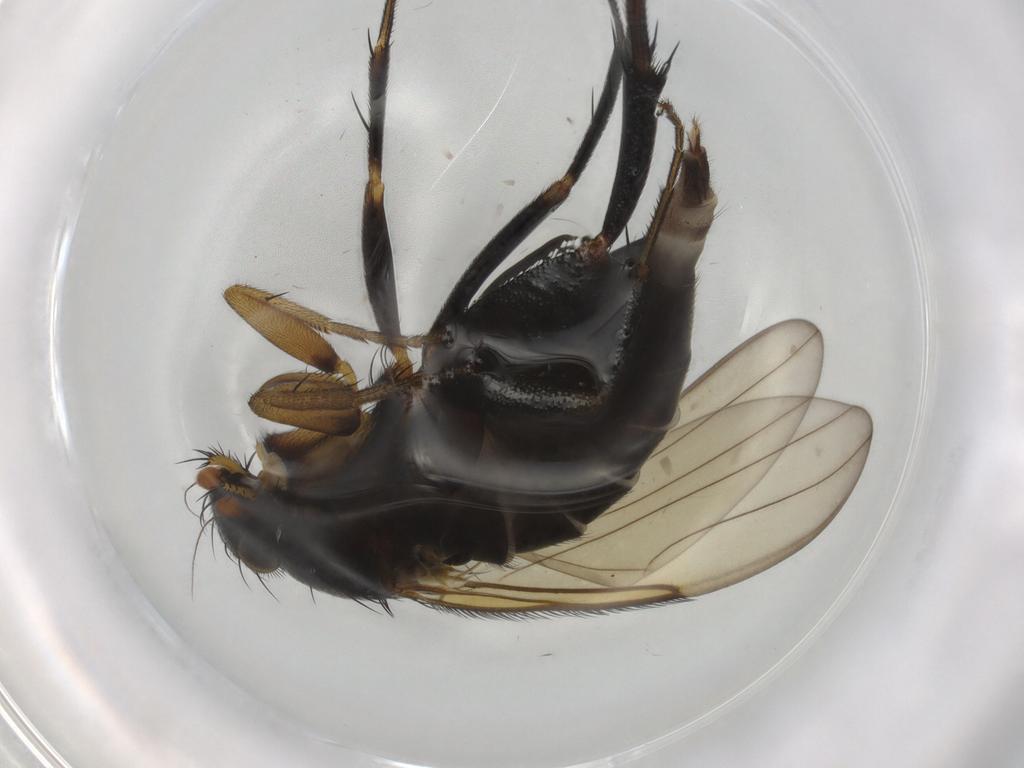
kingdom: Animalia
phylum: Arthropoda
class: Insecta
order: Diptera
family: Phoridae
